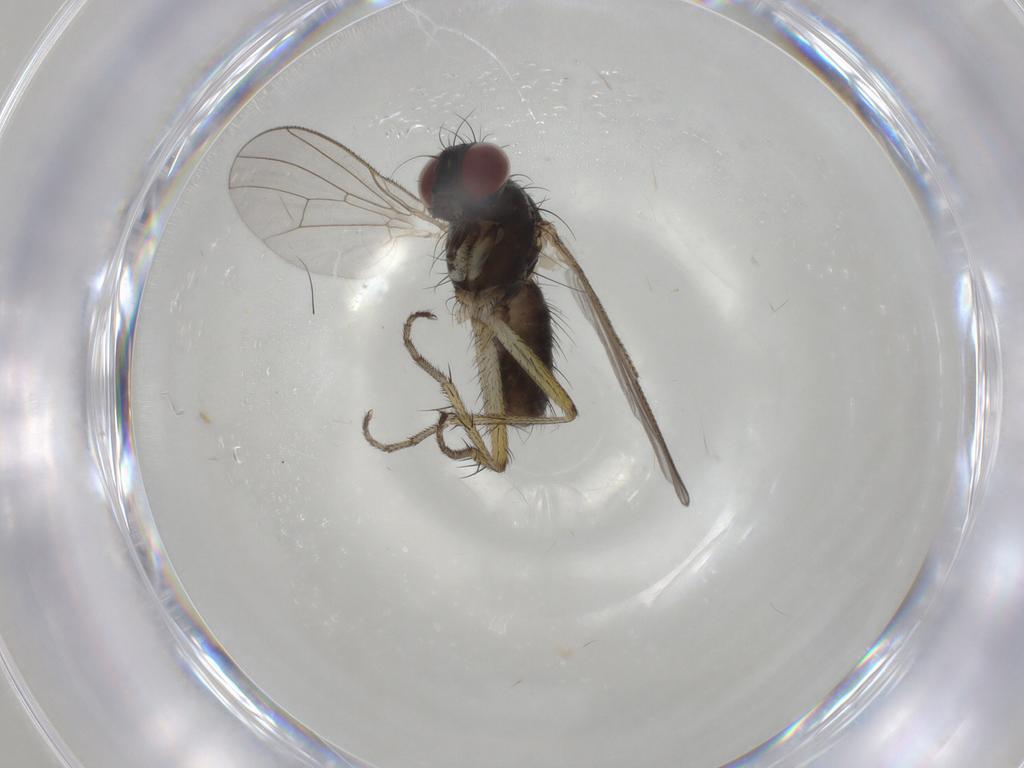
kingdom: Animalia
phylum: Arthropoda
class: Insecta
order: Diptera
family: Muscidae
